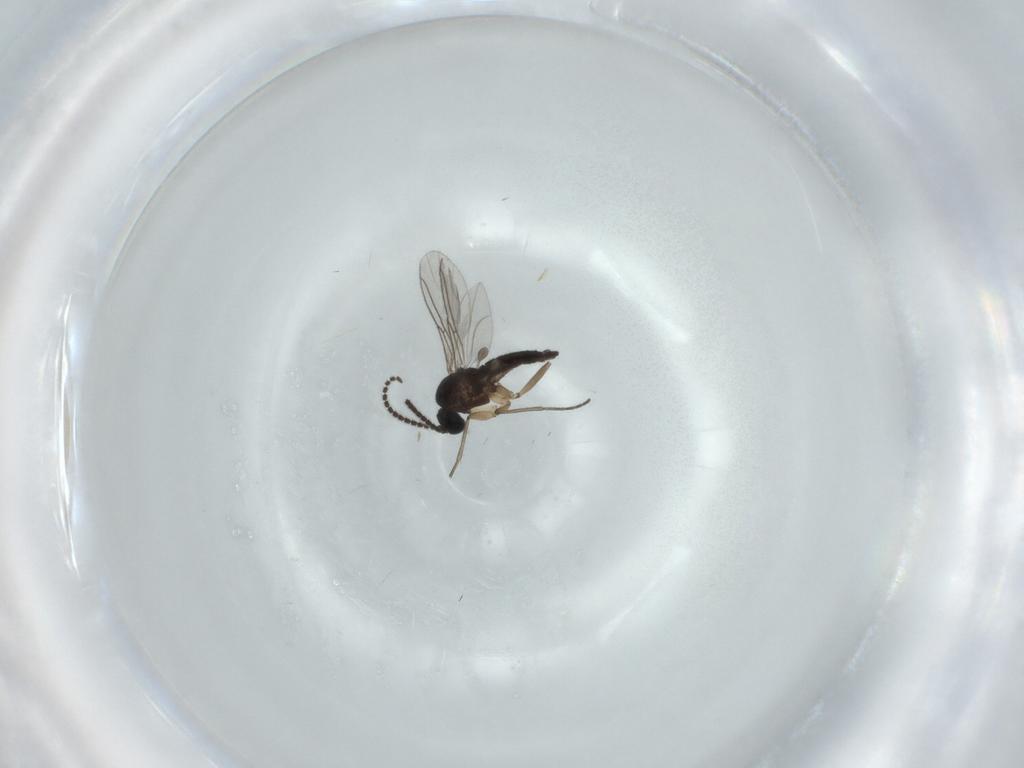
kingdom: Animalia
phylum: Arthropoda
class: Insecta
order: Diptera
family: Sciaridae
